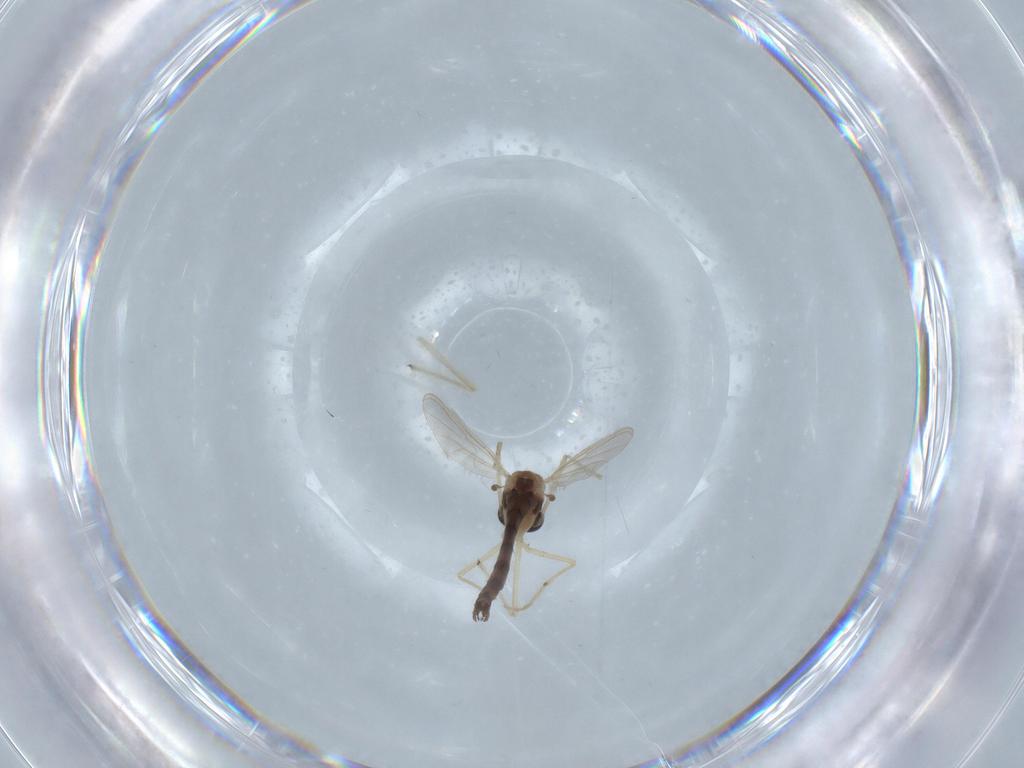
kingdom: Animalia
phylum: Arthropoda
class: Insecta
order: Diptera
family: Chironomidae
